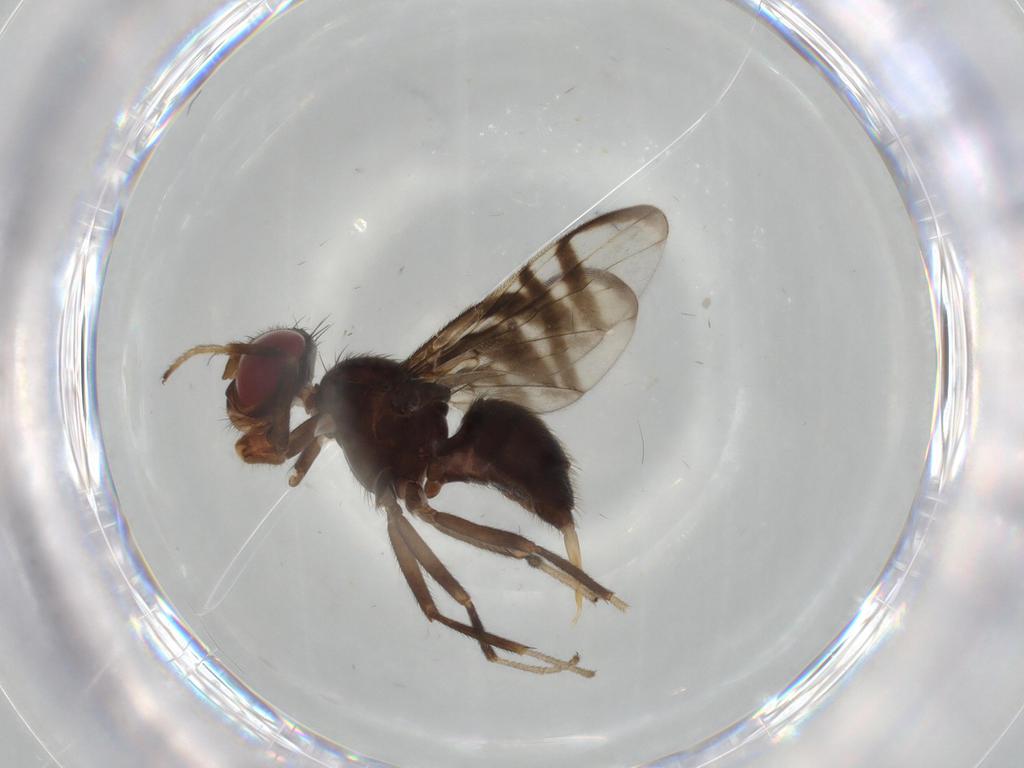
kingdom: Animalia
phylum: Arthropoda
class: Insecta
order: Diptera
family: Platystomatidae
